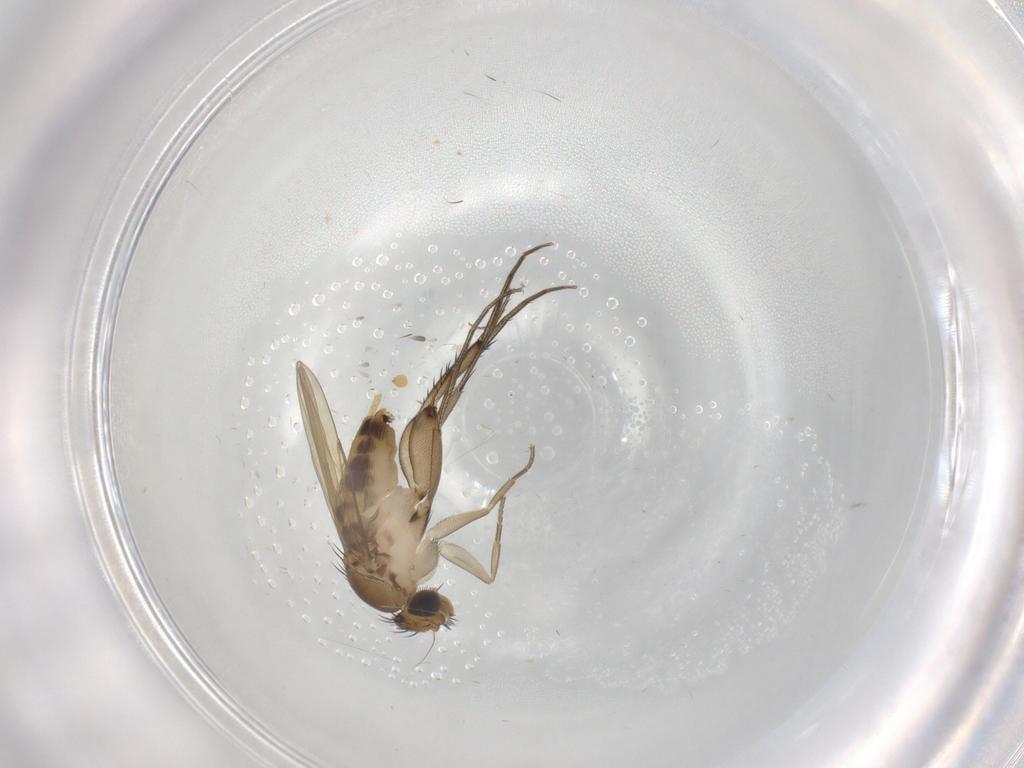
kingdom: Animalia
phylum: Arthropoda
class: Insecta
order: Diptera
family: Phoridae
